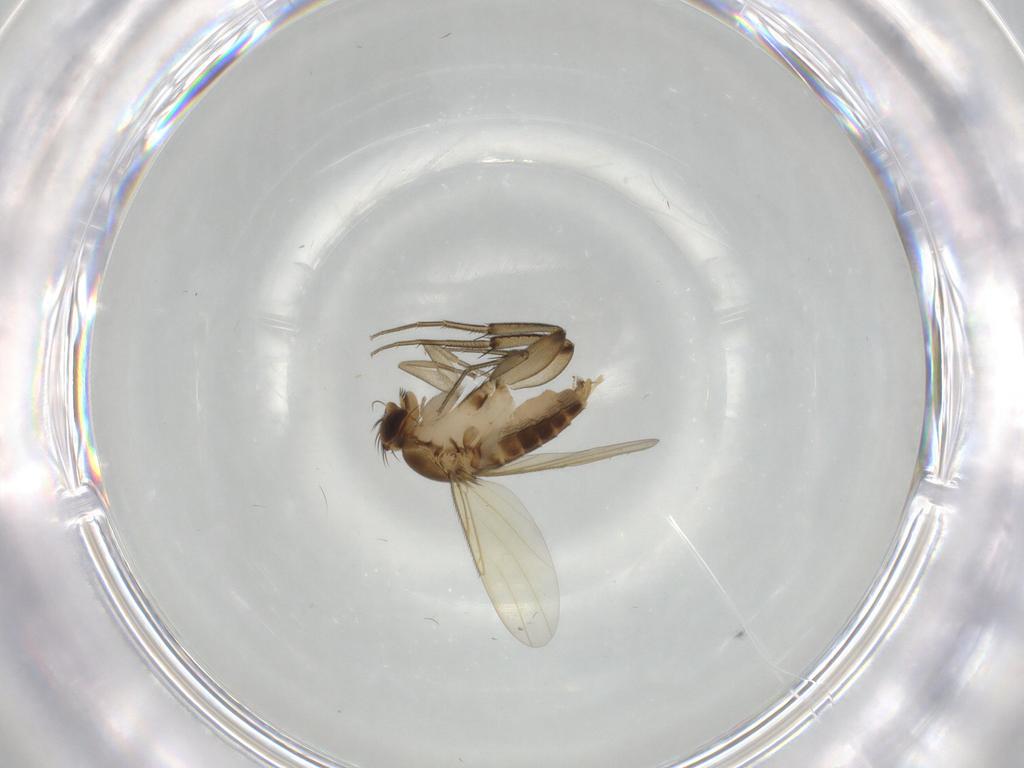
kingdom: Animalia
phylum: Arthropoda
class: Insecta
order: Diptera
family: Phoridae
